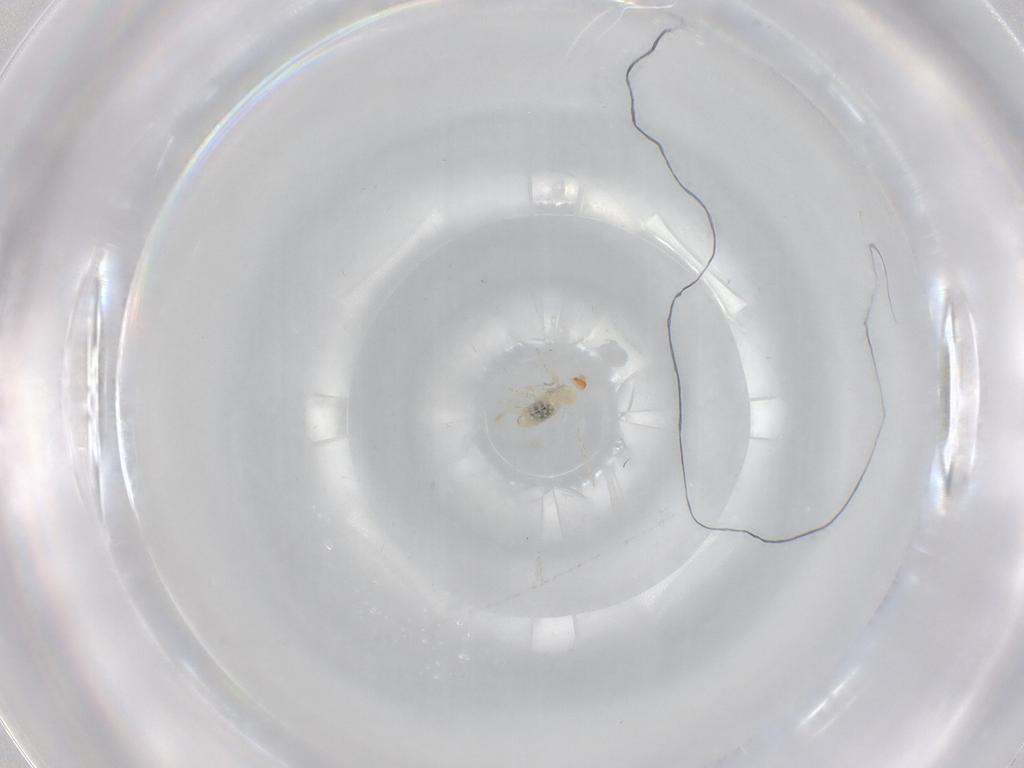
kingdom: Animalia
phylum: Arthropoda
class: Insecta
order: Diptera
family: Cecidomyiidae
